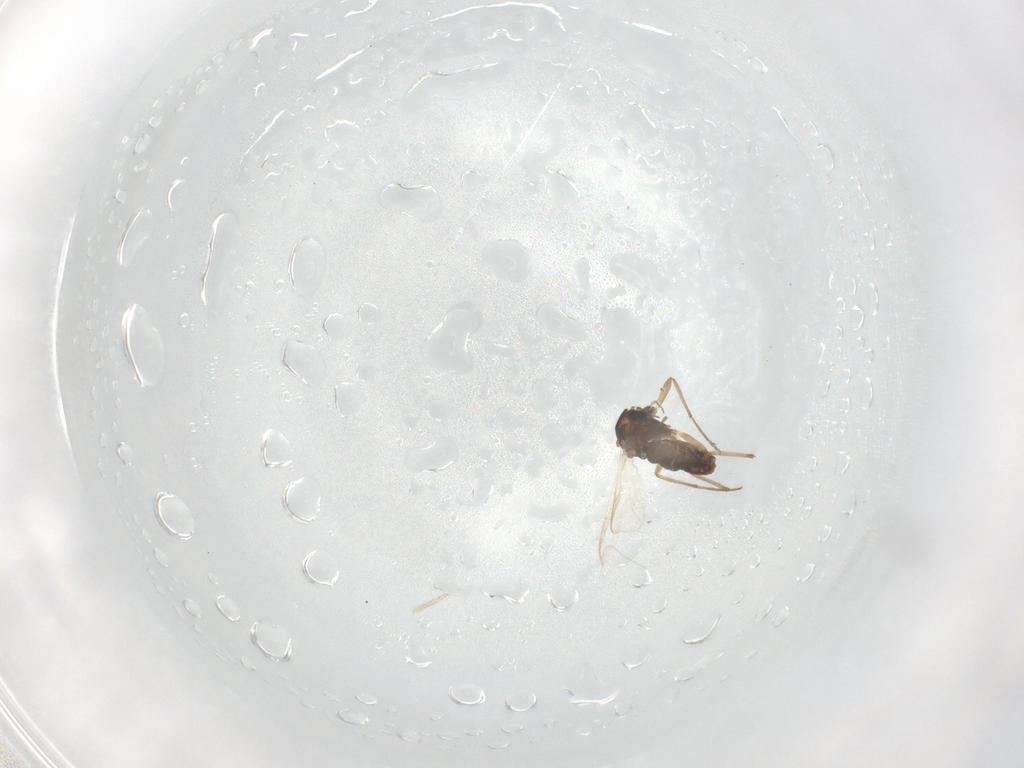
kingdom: Animalia
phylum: Arthropoda
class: Insecta
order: Diptera
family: Chironomidae
